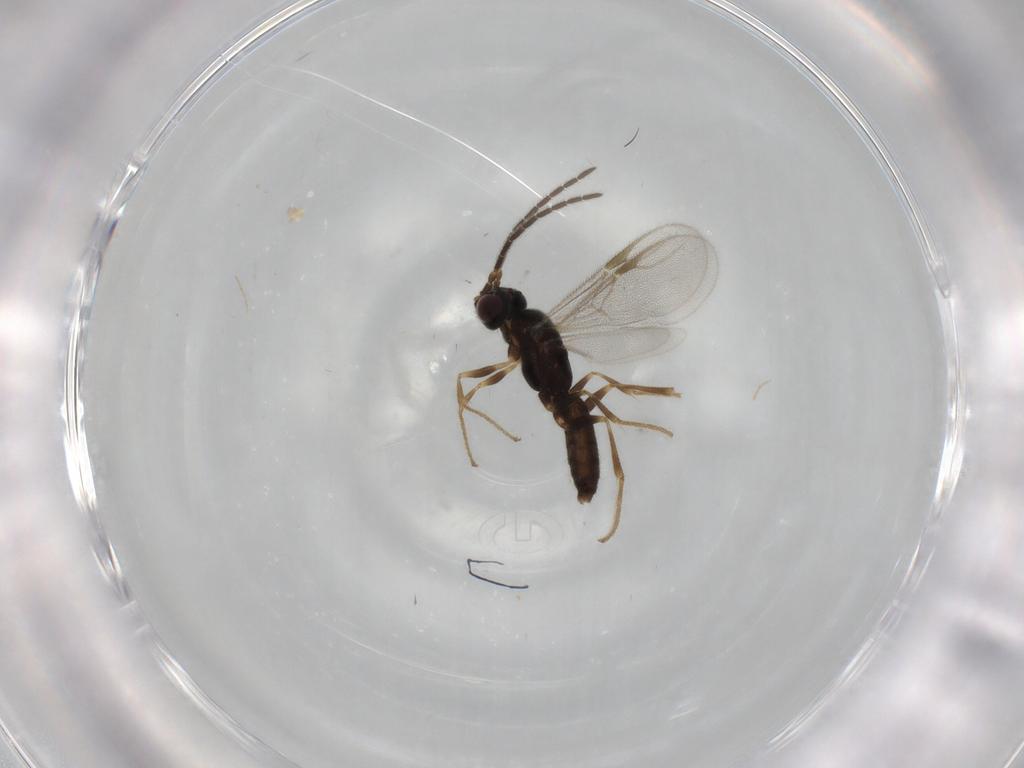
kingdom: Animalia
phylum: Arthropoda
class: Insecta
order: Hymenoptera
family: Dryinidae
